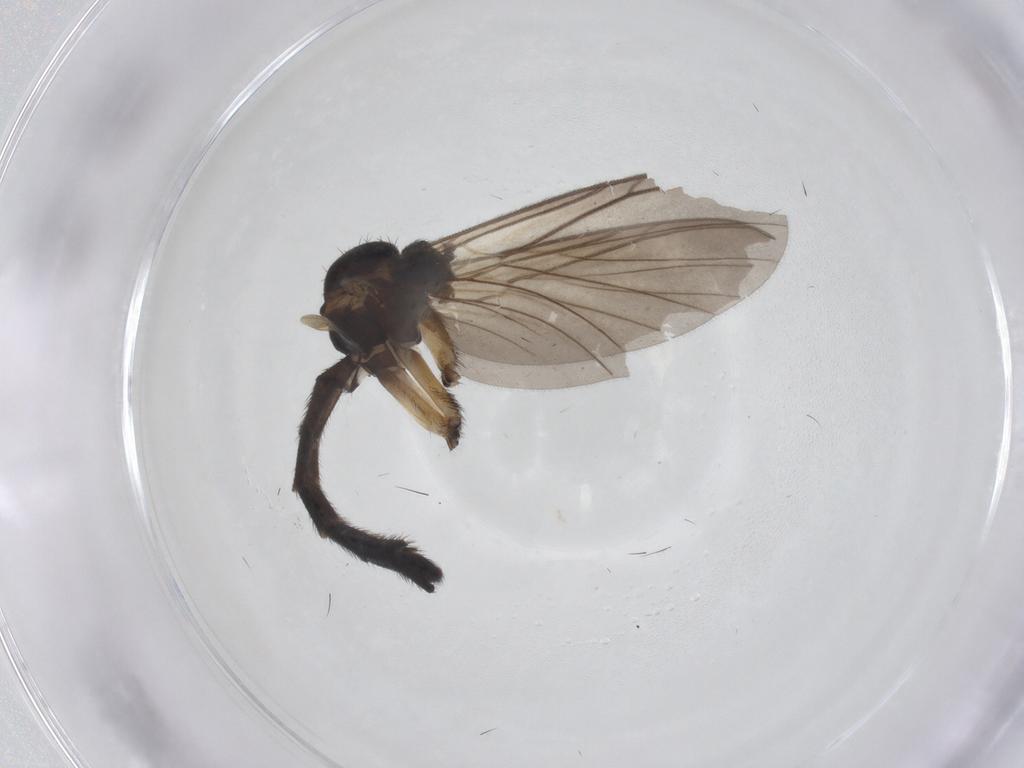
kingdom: Animalia
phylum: Arthropoda
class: Insecta
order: Diptera
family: Keroplatidae
